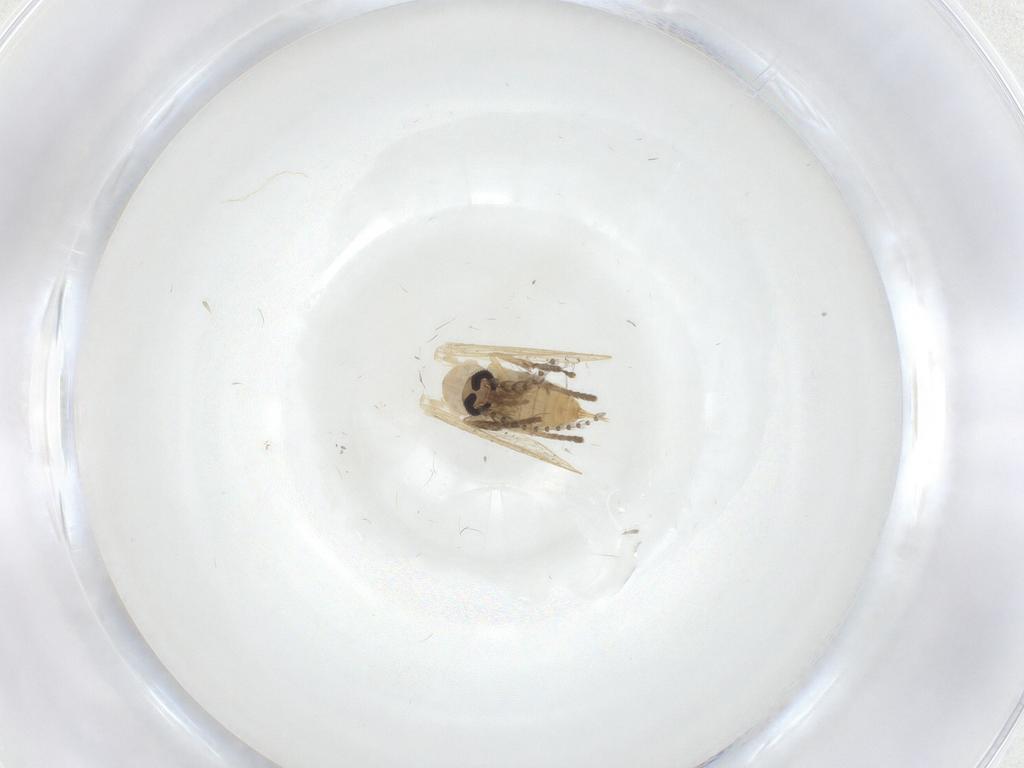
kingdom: Animalia
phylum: Arthropoda
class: Insecta
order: Diptera
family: Psychodidae
